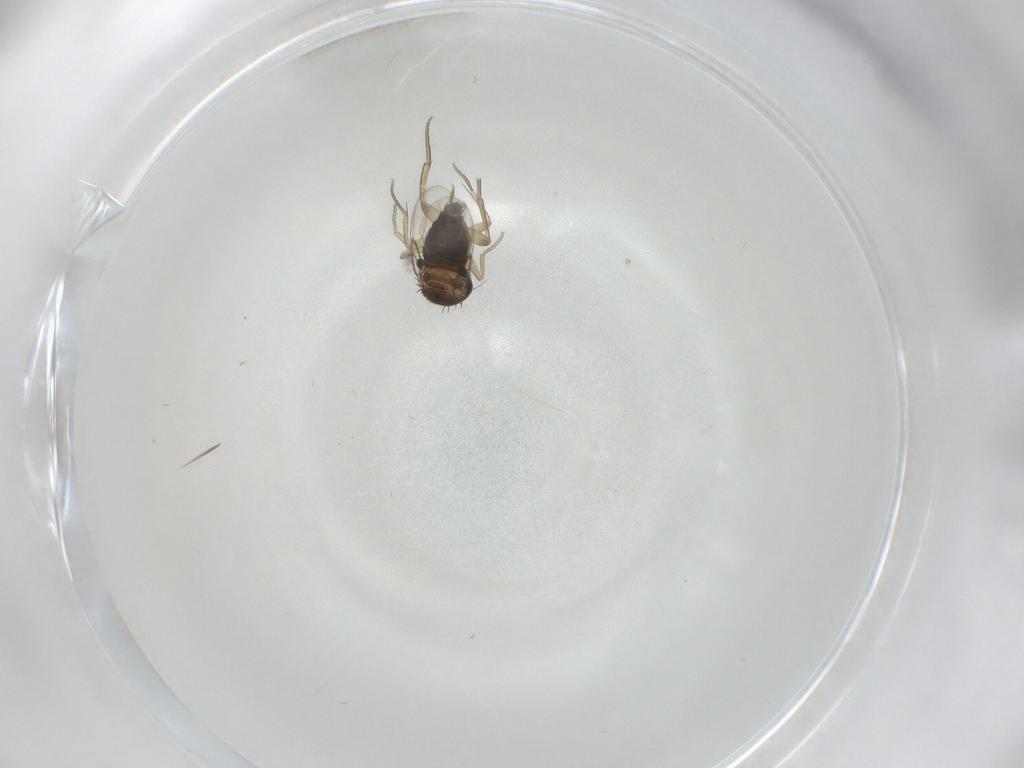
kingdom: Animalia
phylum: Arthropoda
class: Insecta
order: Diptera
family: Sciaridae
